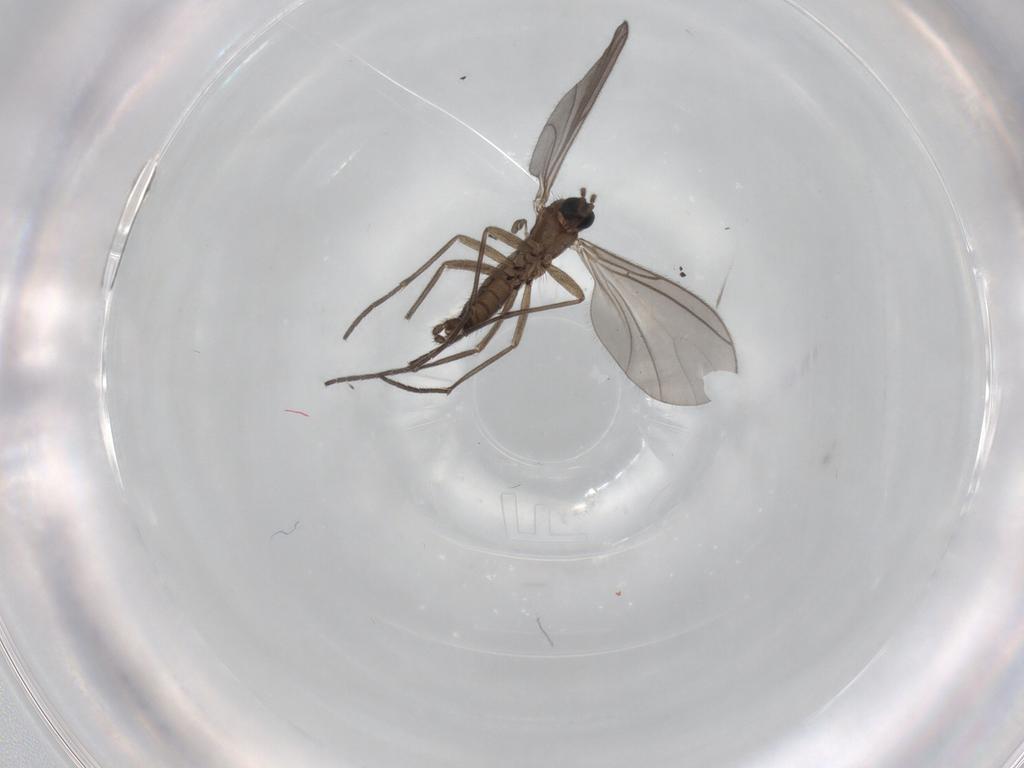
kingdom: Animalia
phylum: Arthropoda
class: Insecta
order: Diptera
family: Sciaridae
